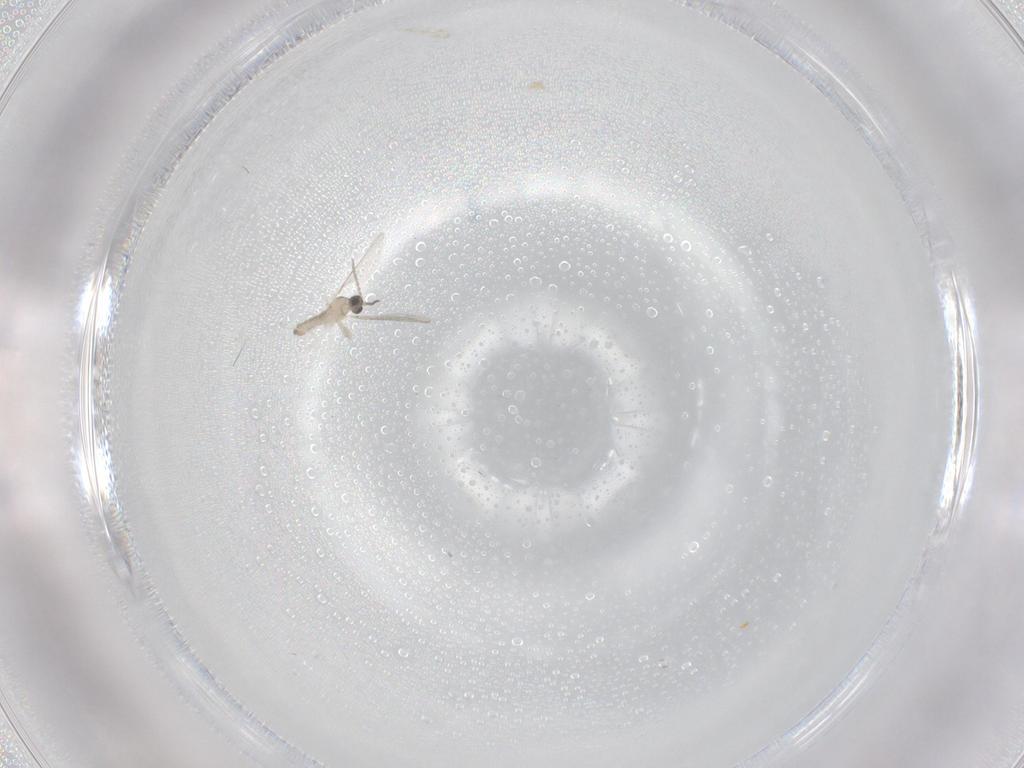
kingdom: Animalia
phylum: Arthropoda
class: Insecta
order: Diptera
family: Cecidomyiidae
